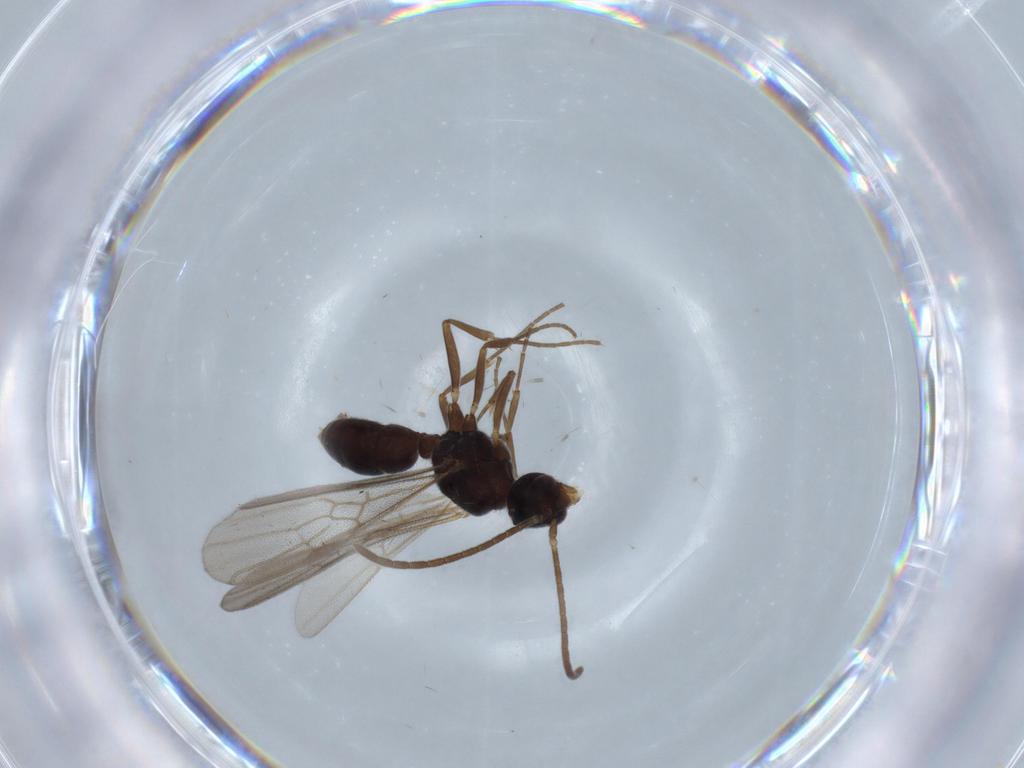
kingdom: Animalia
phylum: Arthropoda
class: Insecta
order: Hymenoptera
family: Formicidae
